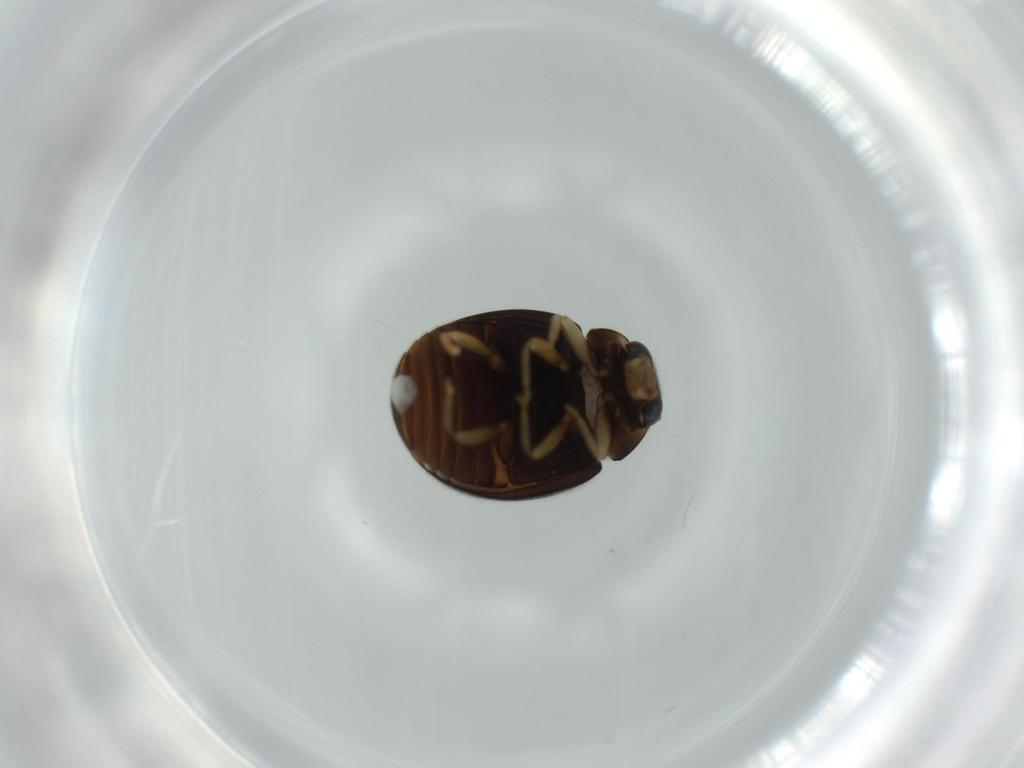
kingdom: Animalia
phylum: Arthropoda
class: Insecta
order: Coleoptera
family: Coccinellidae
